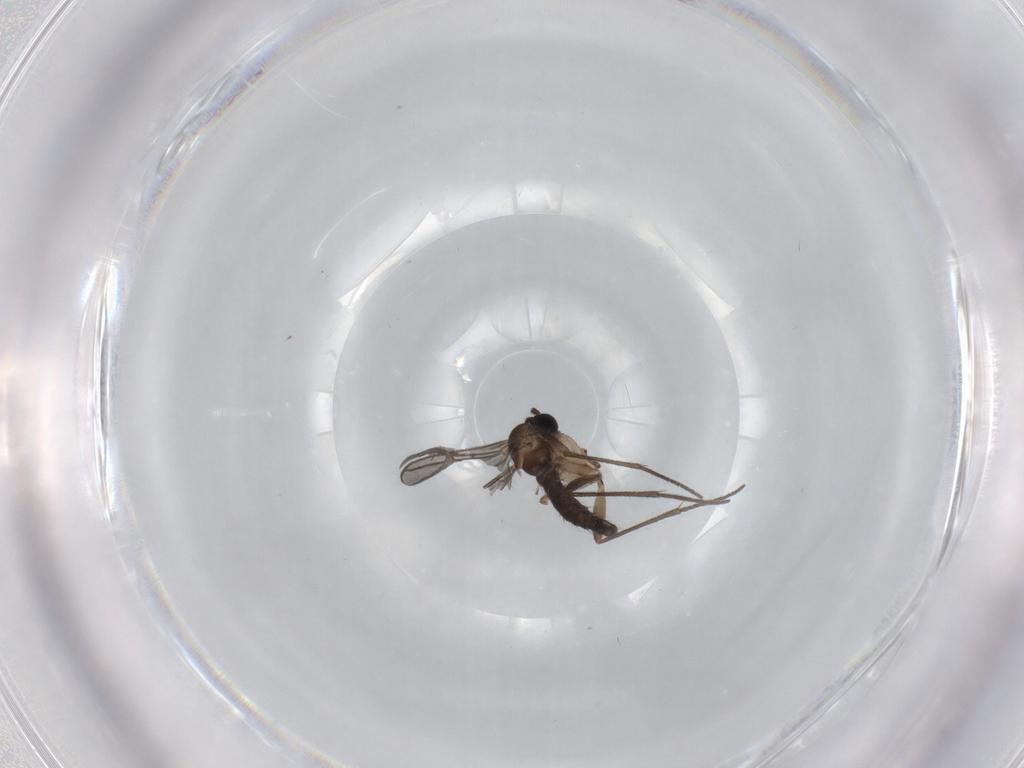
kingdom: Animalia
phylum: Arthropoda
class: Insecta
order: Diptera
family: Sciaridae
